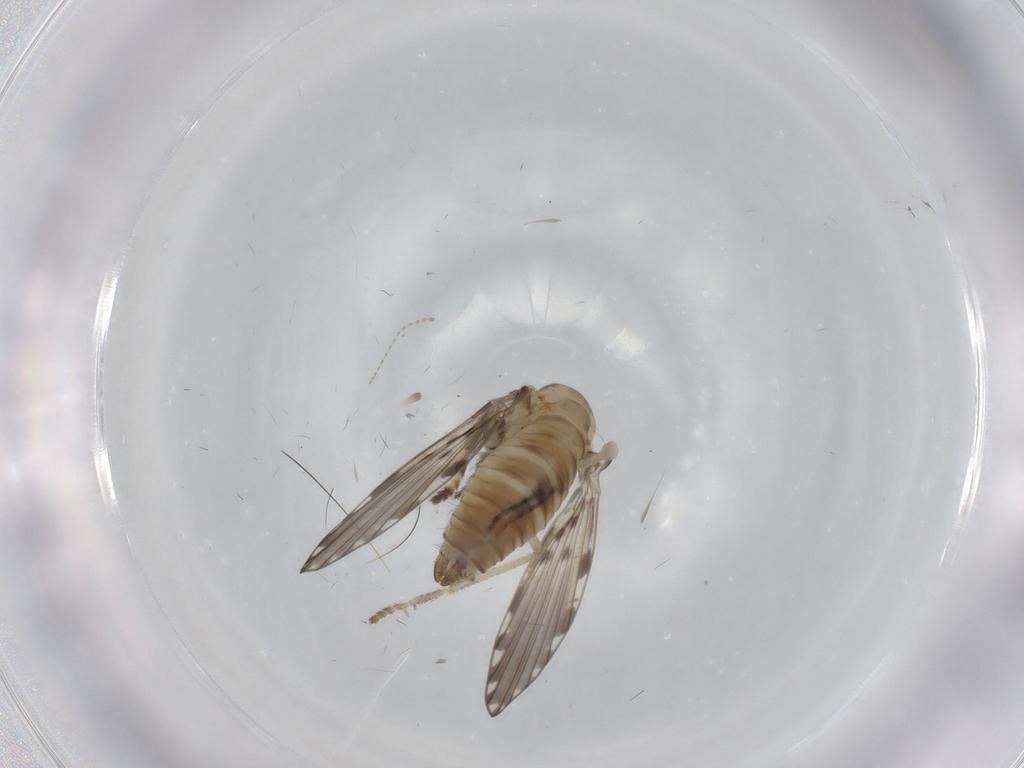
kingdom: Animalia
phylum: Arthropoda
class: Insecta
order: Diptera
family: Psychodidae
